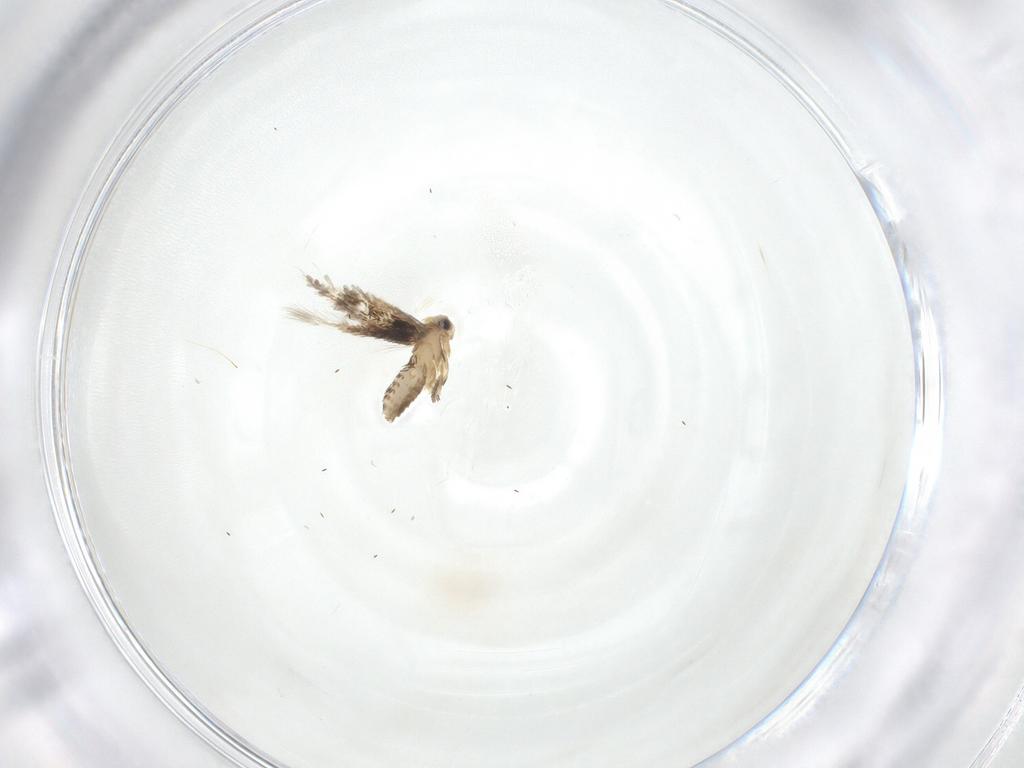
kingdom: Animalia
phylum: Arthropoda
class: Insecta
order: Lepidoptera
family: Nepticulidae
